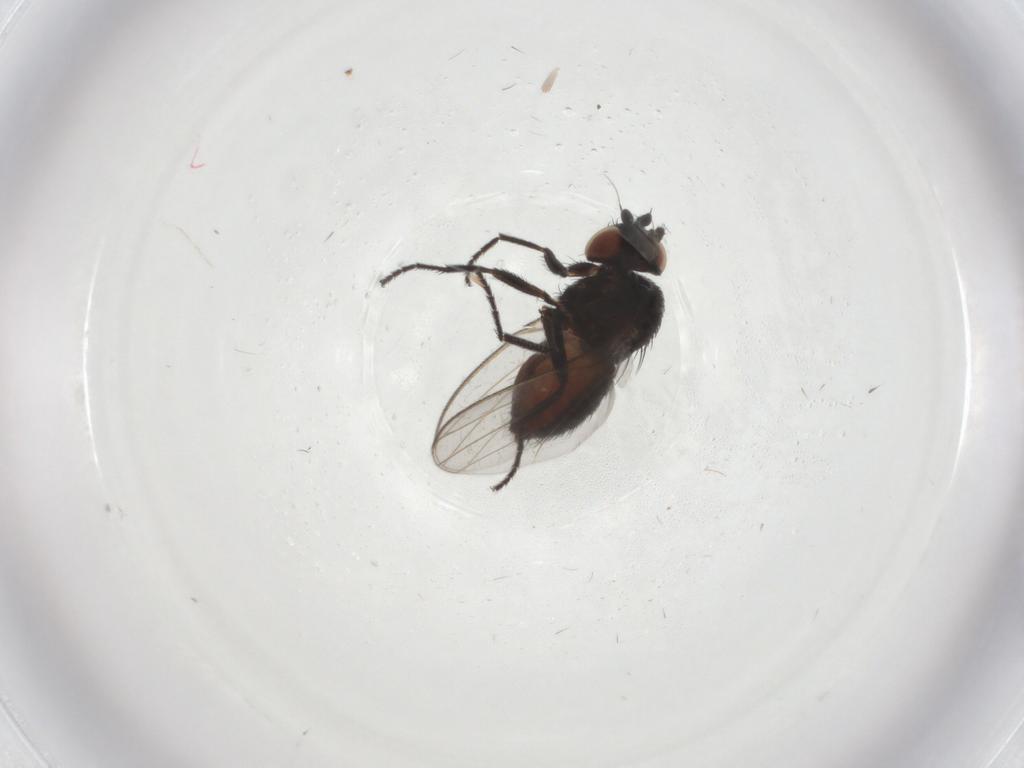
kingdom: Animalia
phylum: Arthropoda
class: Insecta
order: Diptera
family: Milichiidae
